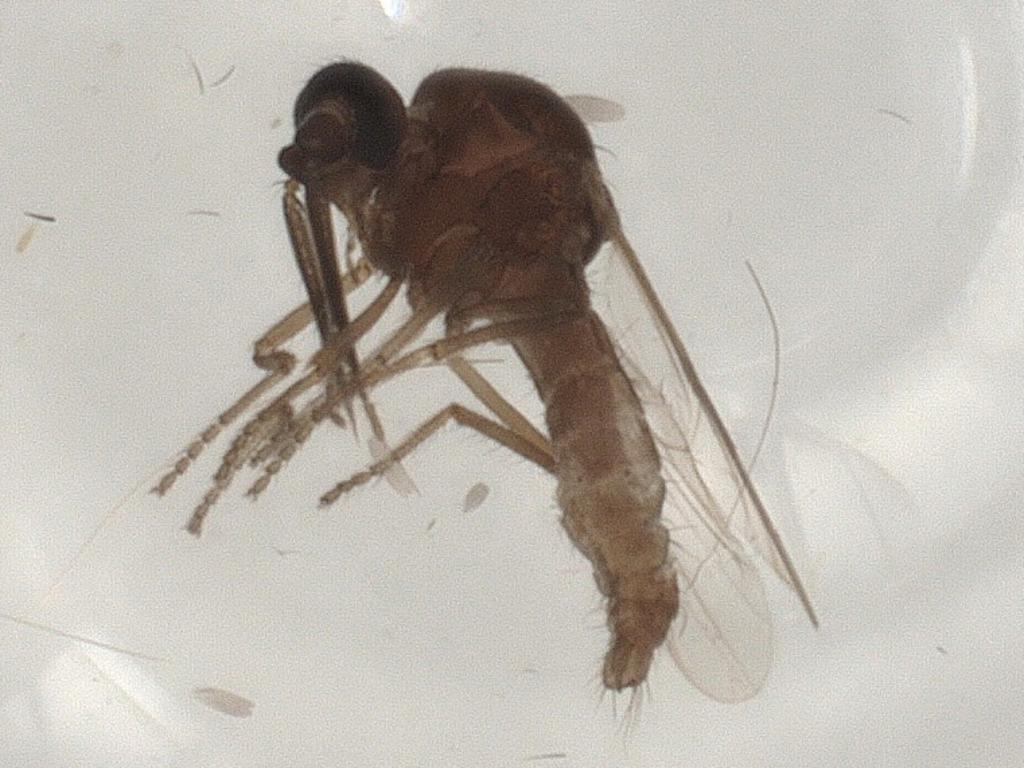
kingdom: Animalia
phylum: Arthropoda
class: Insecta
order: Diptera
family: Ceratopogonidae
